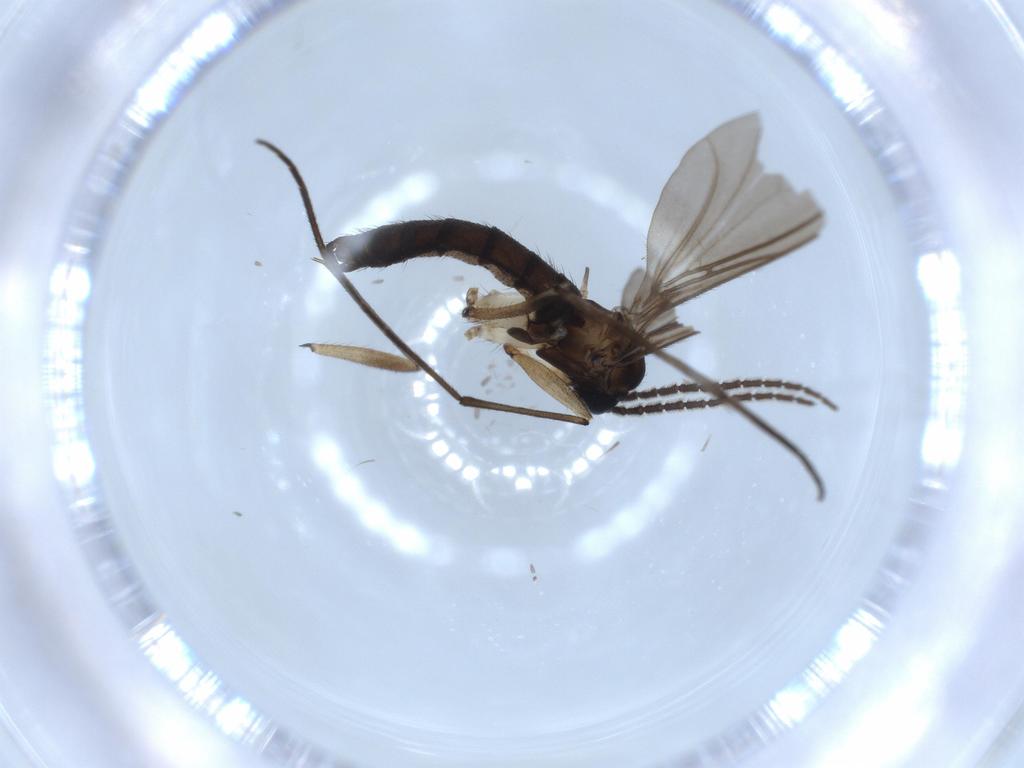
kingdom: Animalia
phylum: Arthropoda
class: Insecta
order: Diptera
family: Sciaridae
